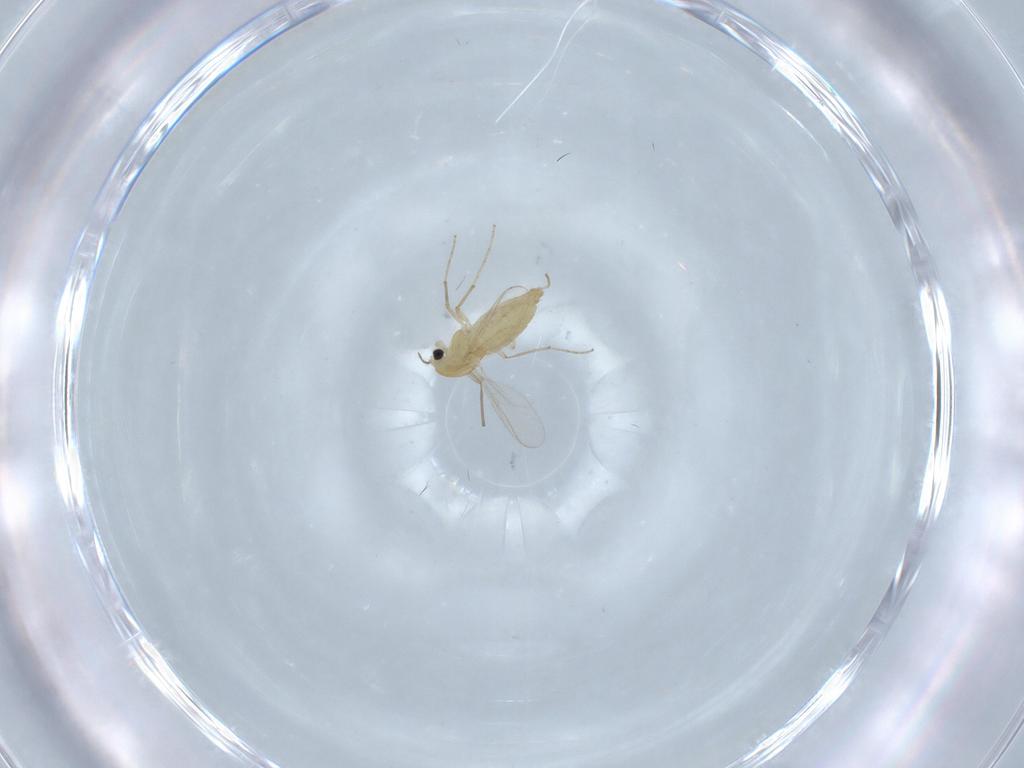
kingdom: Animalia
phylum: Arthropoda
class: Insecta
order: Diptera
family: Chironomidae
